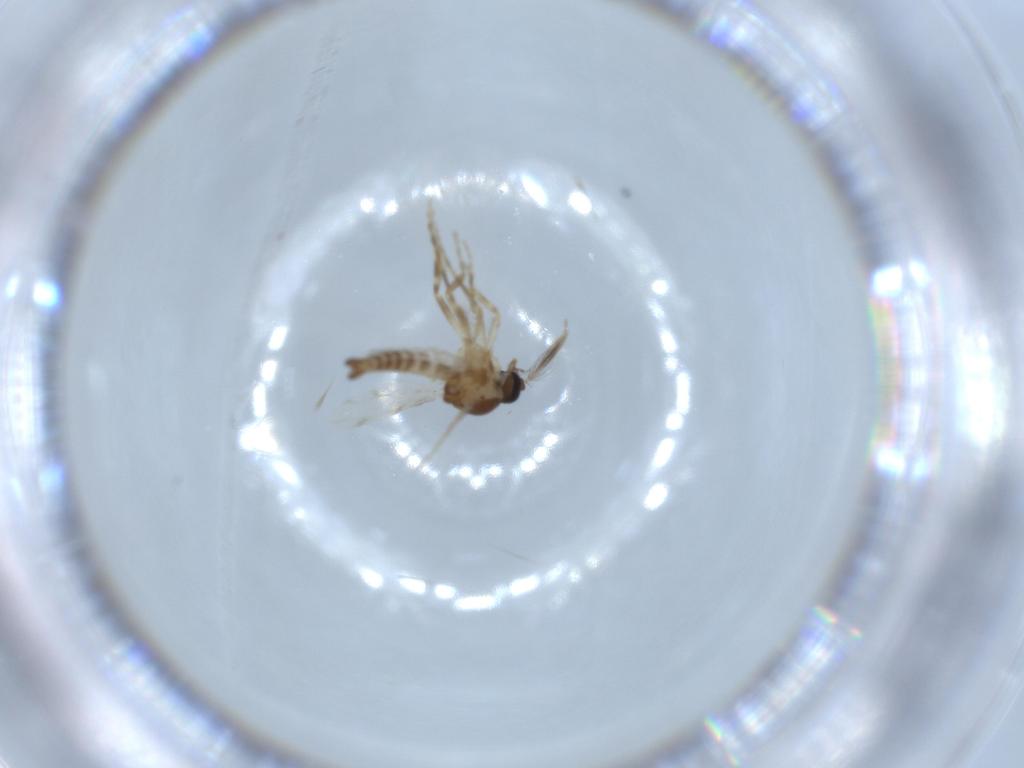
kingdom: Animalia
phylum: Arthropoda
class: Insecta
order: Diptera
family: Ceratopogonidae
